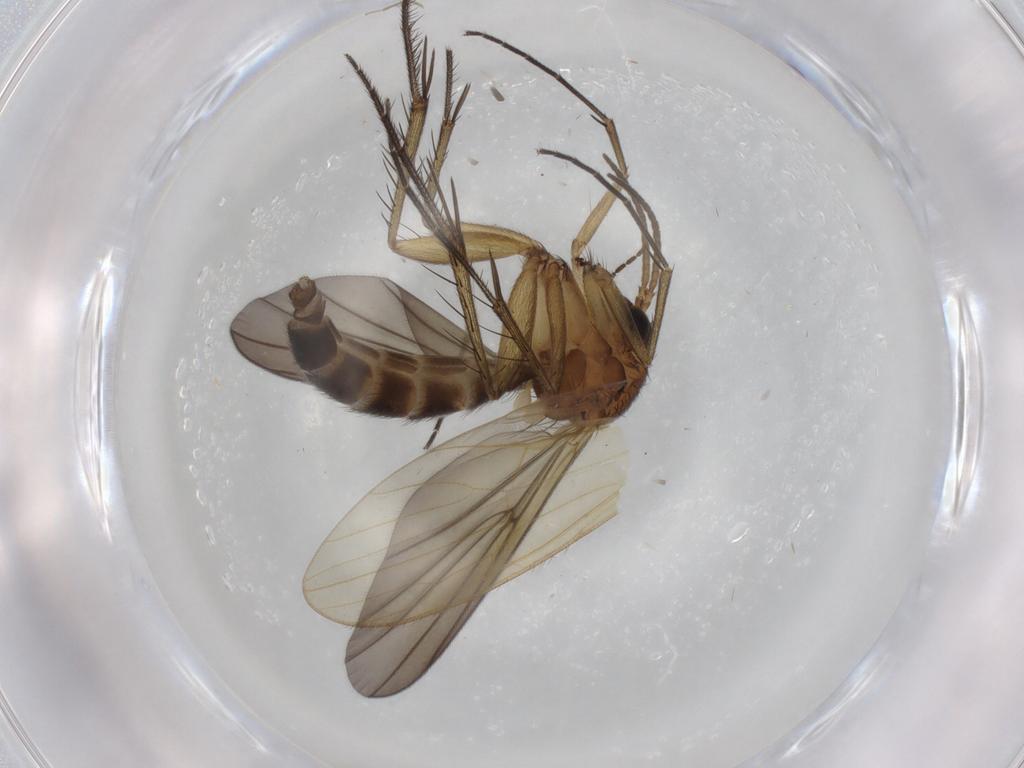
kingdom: Animalia
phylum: Arthropoda
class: Insecta
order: Diptera
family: Mycetophilidae
